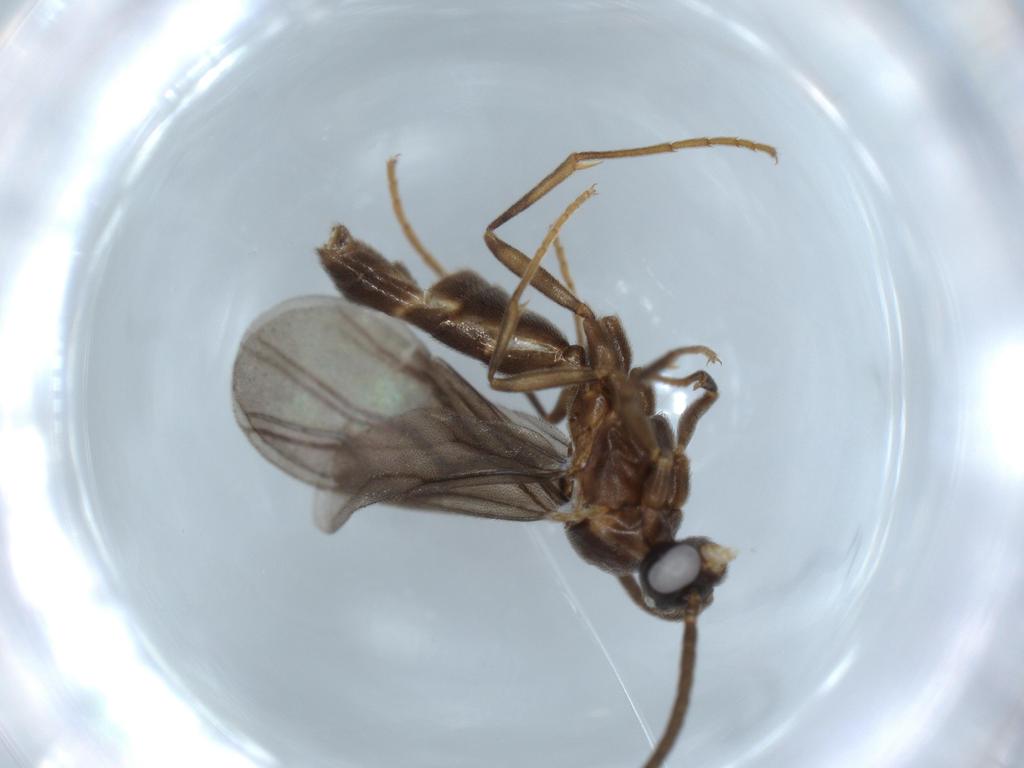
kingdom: Animalia
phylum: Arthropoda
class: Insecta
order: Hymenoptera
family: Formicidae
